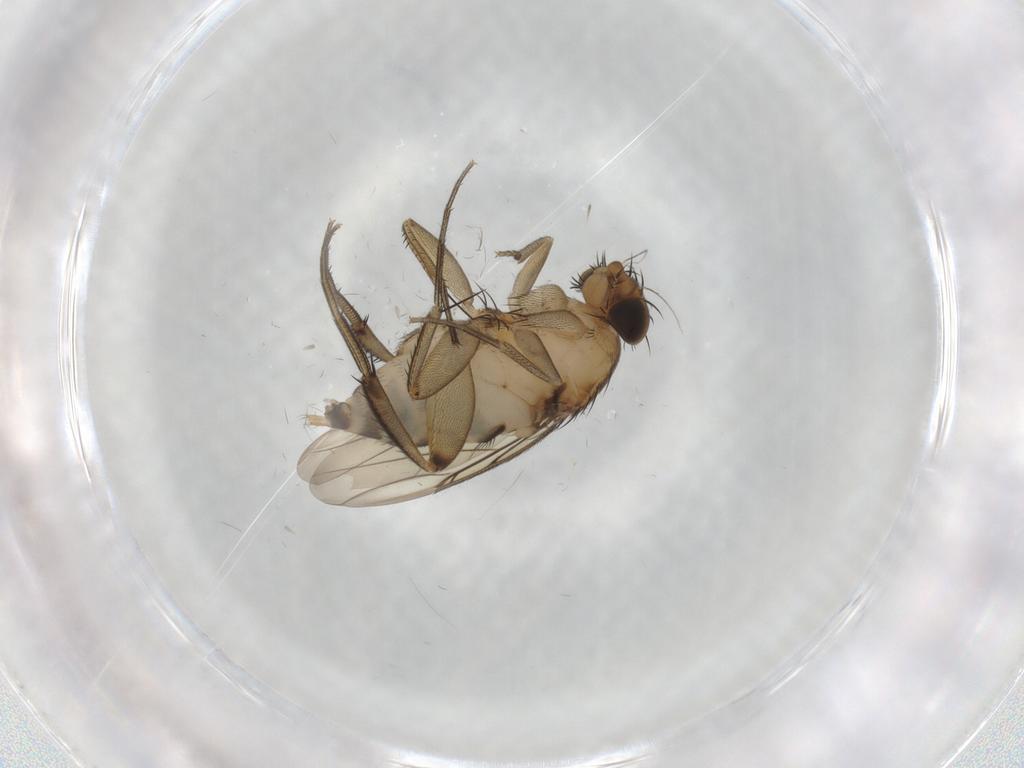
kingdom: Animalia
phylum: Arthropoda
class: Insecta
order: Diptera
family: Phoridae
